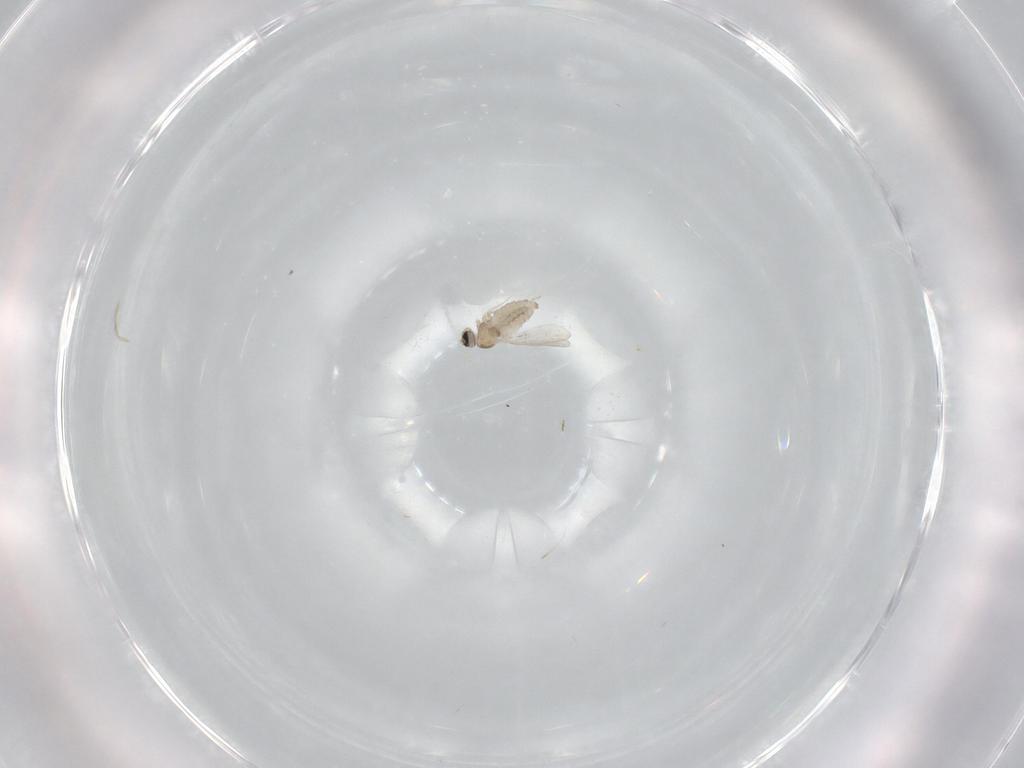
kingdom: Animalia
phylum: Arthropoda
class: Insecta
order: Diptera
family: Cecidomyiidae
